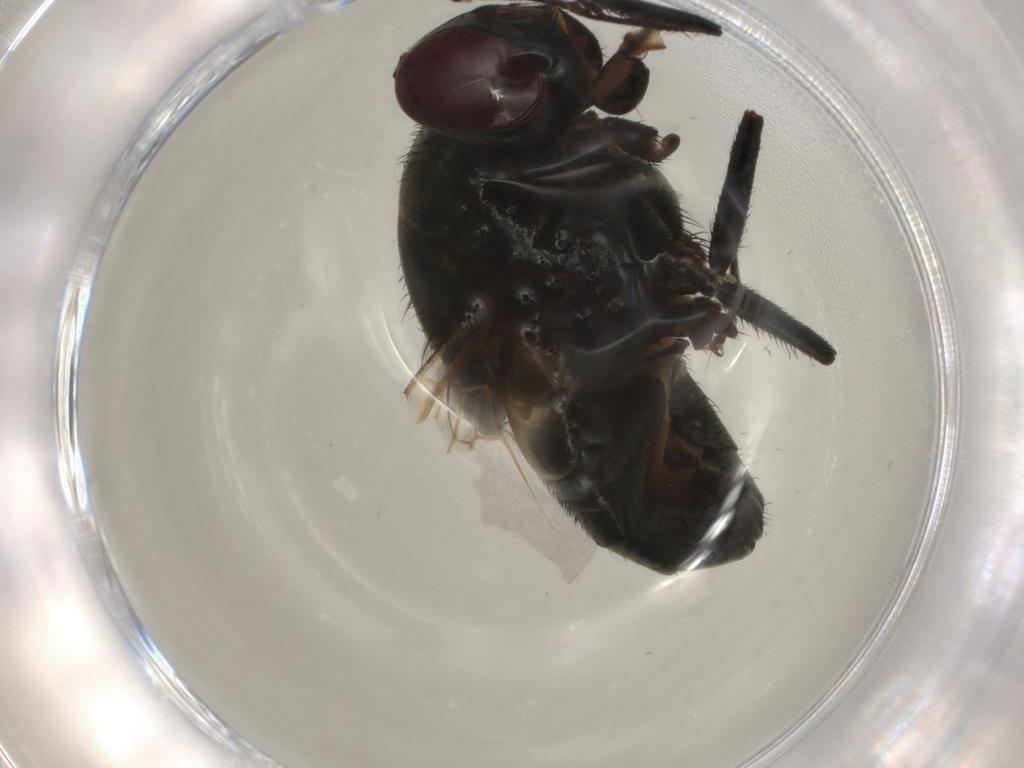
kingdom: Animalia
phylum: Arthropoda
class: Insecta
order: Diptera
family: Muscidae
